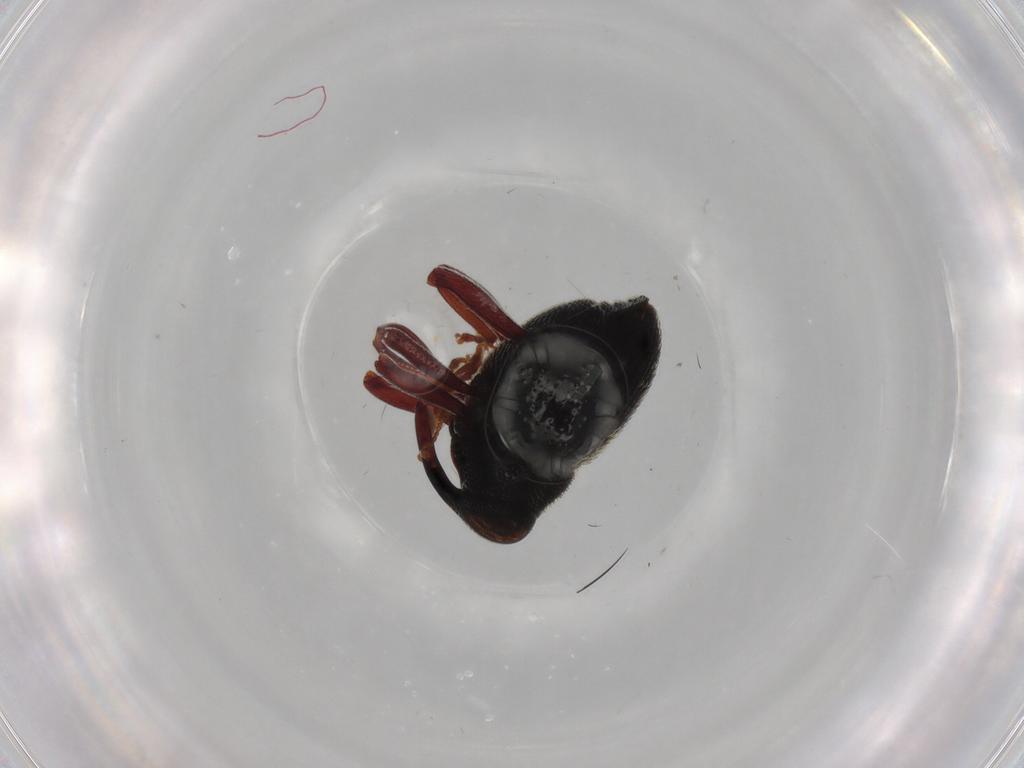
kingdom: Animalia
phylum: Arthropoda
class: Insecta
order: Coleoptera
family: Curculionidae
